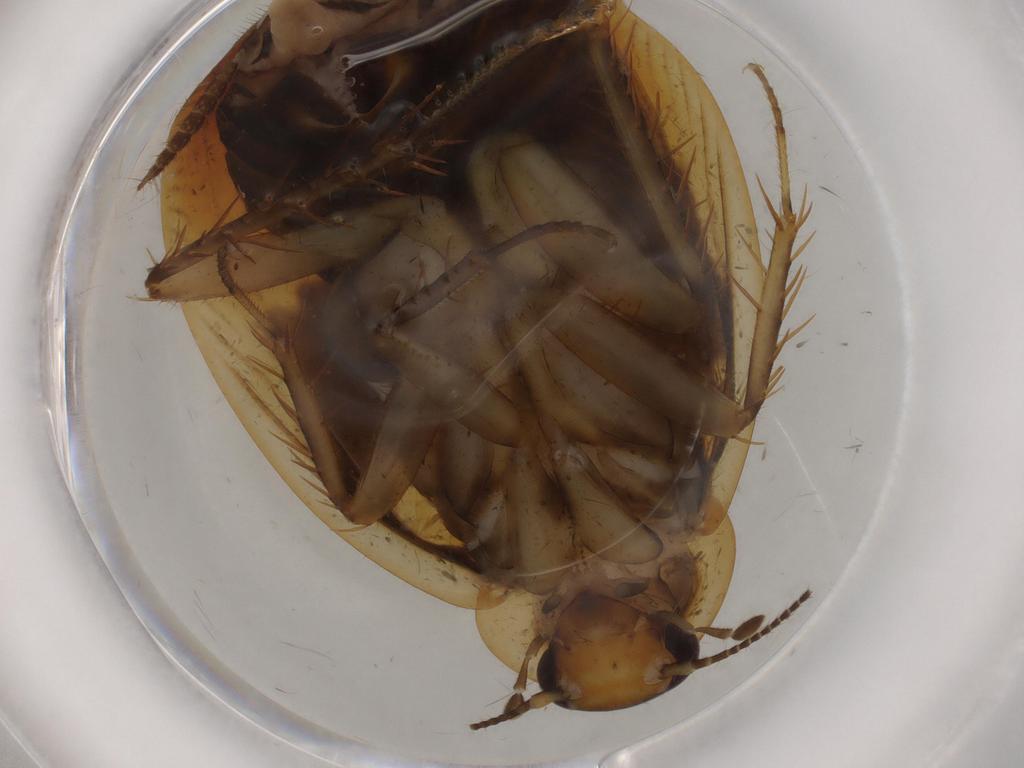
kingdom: Animalia
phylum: Arthropoda
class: Insecta
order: Blattodea
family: Ectobiidae
